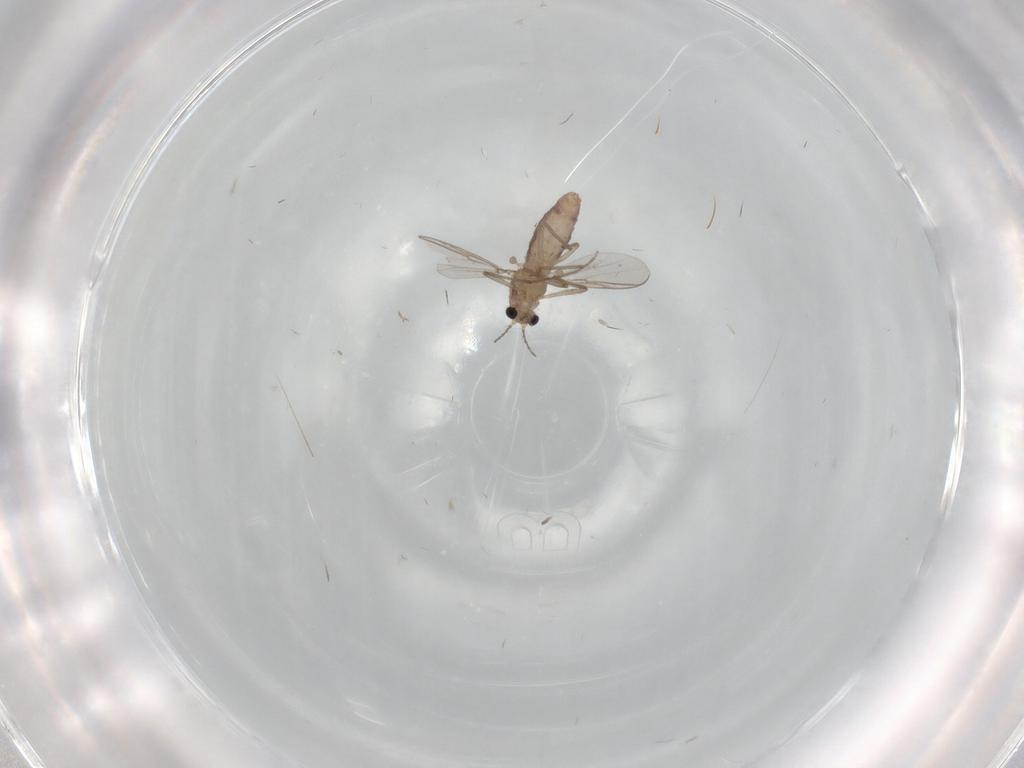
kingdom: Animalia
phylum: Arthropoda
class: Insecta
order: Diptera
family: Chironomidae
